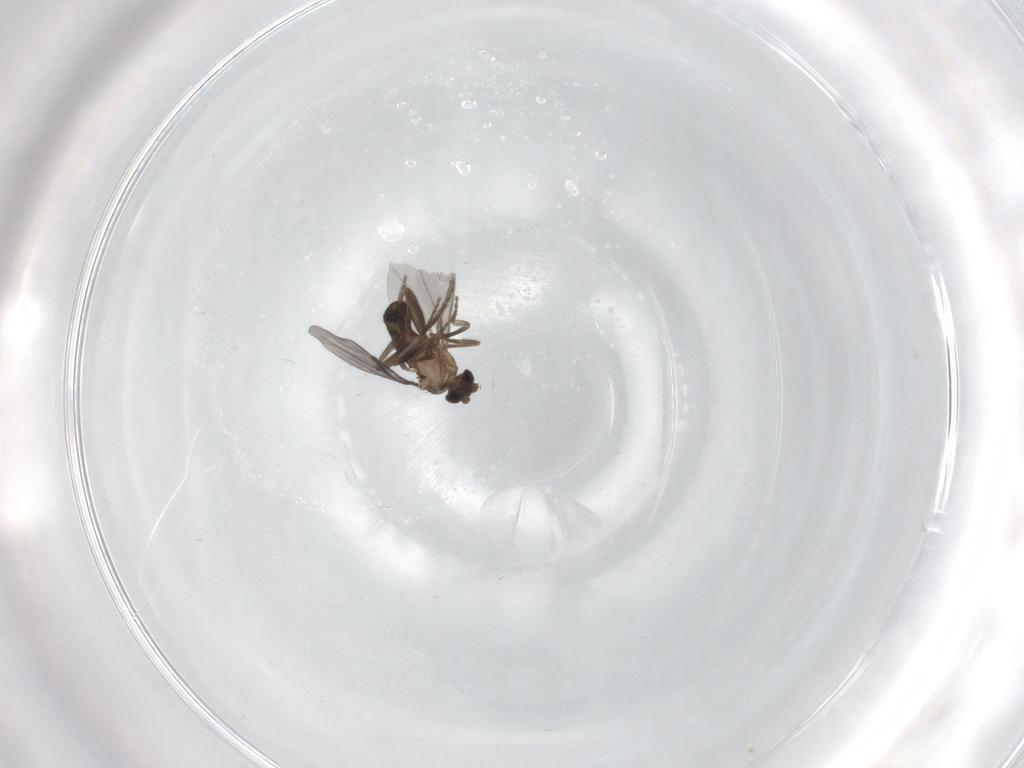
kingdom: Animalia
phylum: Arthropoda
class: Insecta
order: Diptera
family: Phoridae
